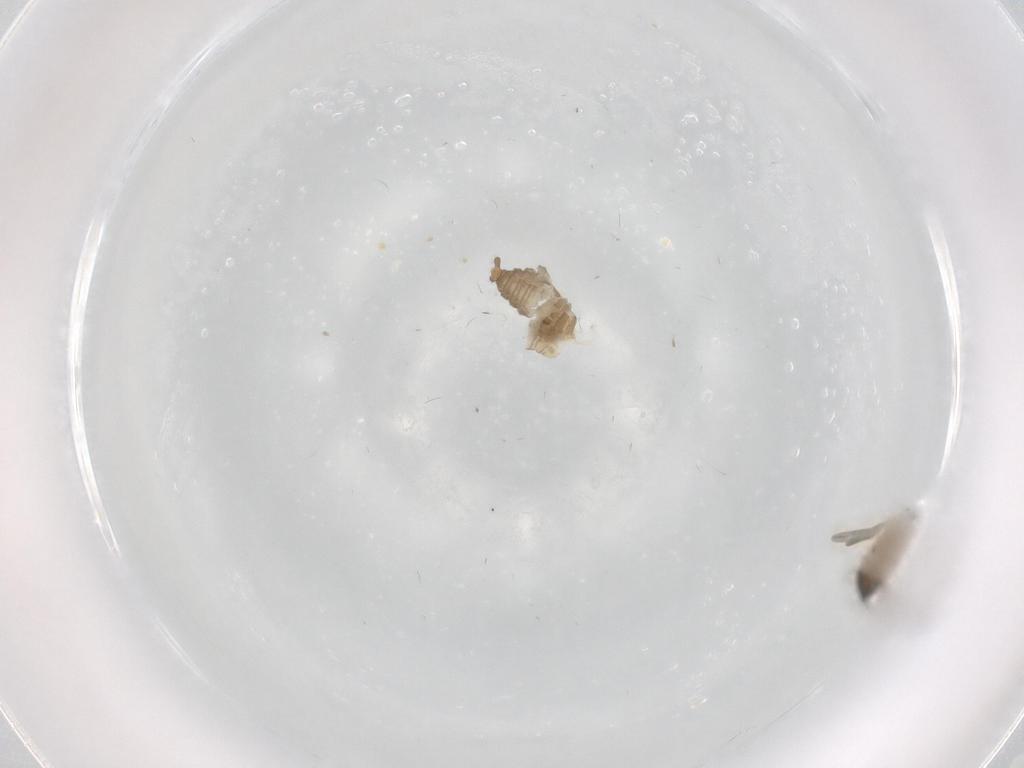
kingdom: Animalia
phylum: Arthropoda
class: Insecta
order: Diptera
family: Cecidomyiidae
